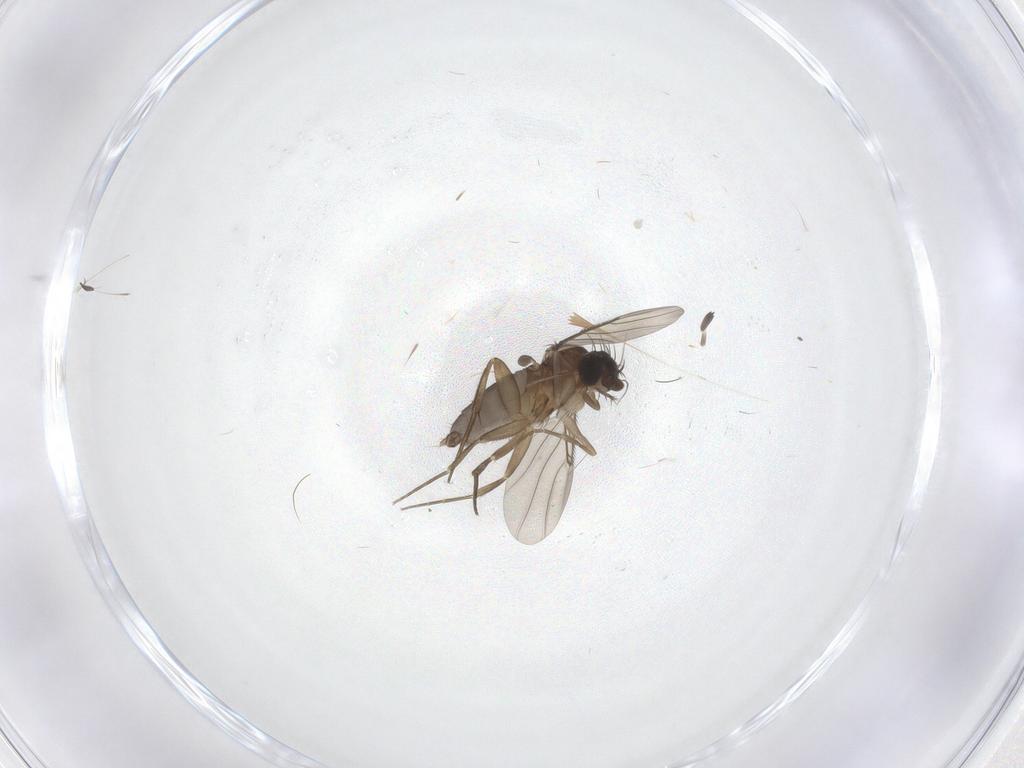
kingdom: Animalia
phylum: Arthropoda
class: Insecta
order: Diptera
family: Phoridae
